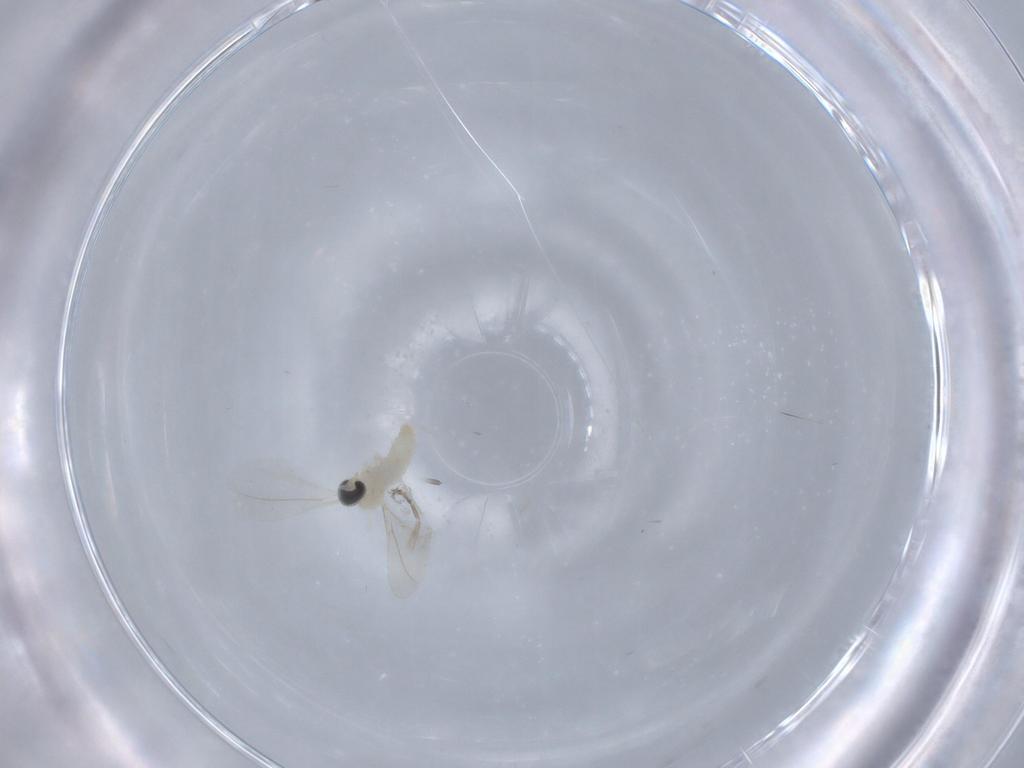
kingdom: Animalia
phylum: Arthropoda
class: Insecta
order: Diptera
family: Cecidomyiidae
